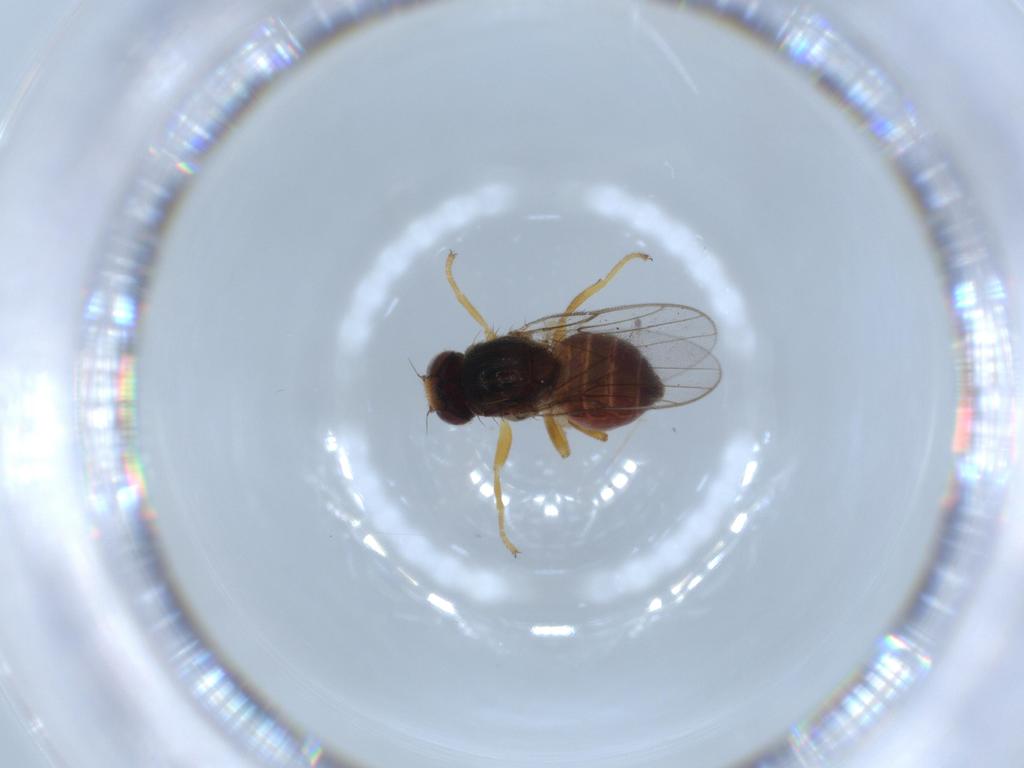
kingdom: Animalia
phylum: Arthropoda
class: Insecta
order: Diptera
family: Chloropidae
